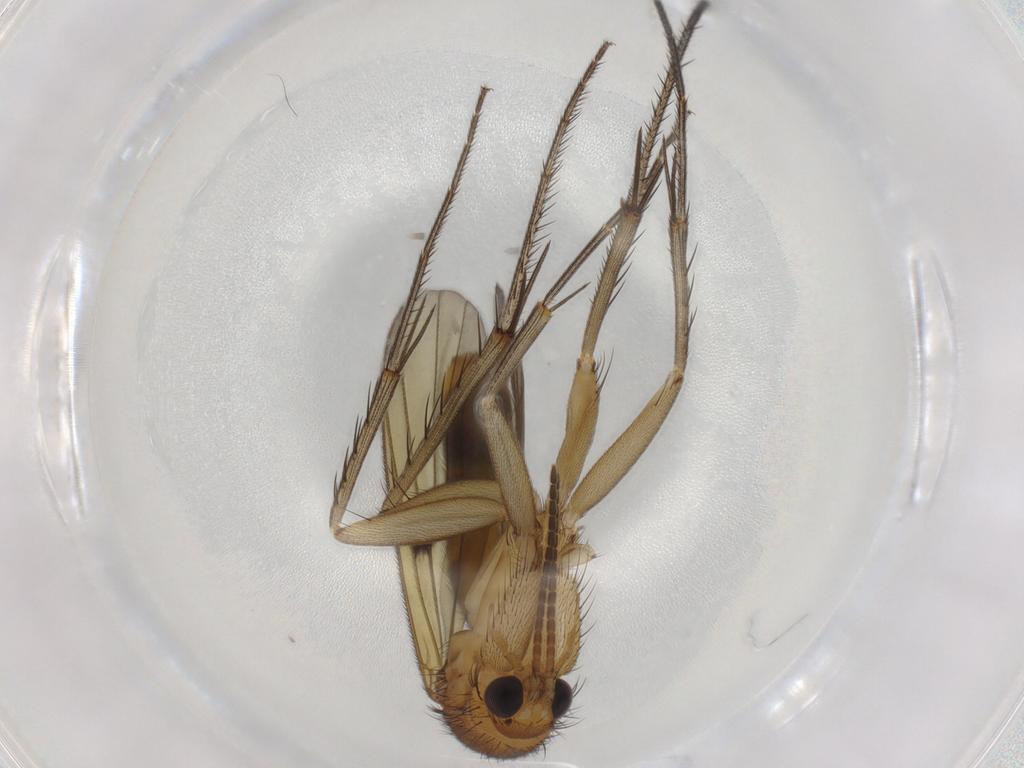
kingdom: Animalia
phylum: Arthropoda
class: Insecta
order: Diptera
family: Mycetophilidae
